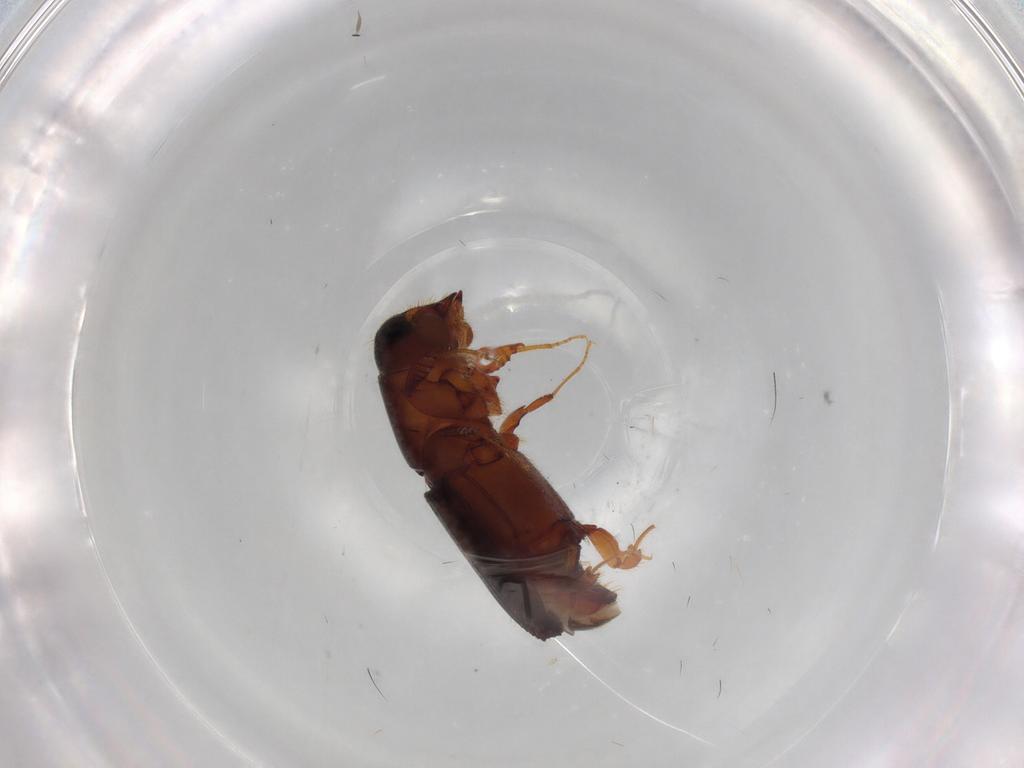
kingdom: Animalia
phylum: Arthropoda
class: Insecta
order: Coleoptera
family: Curculionidae
